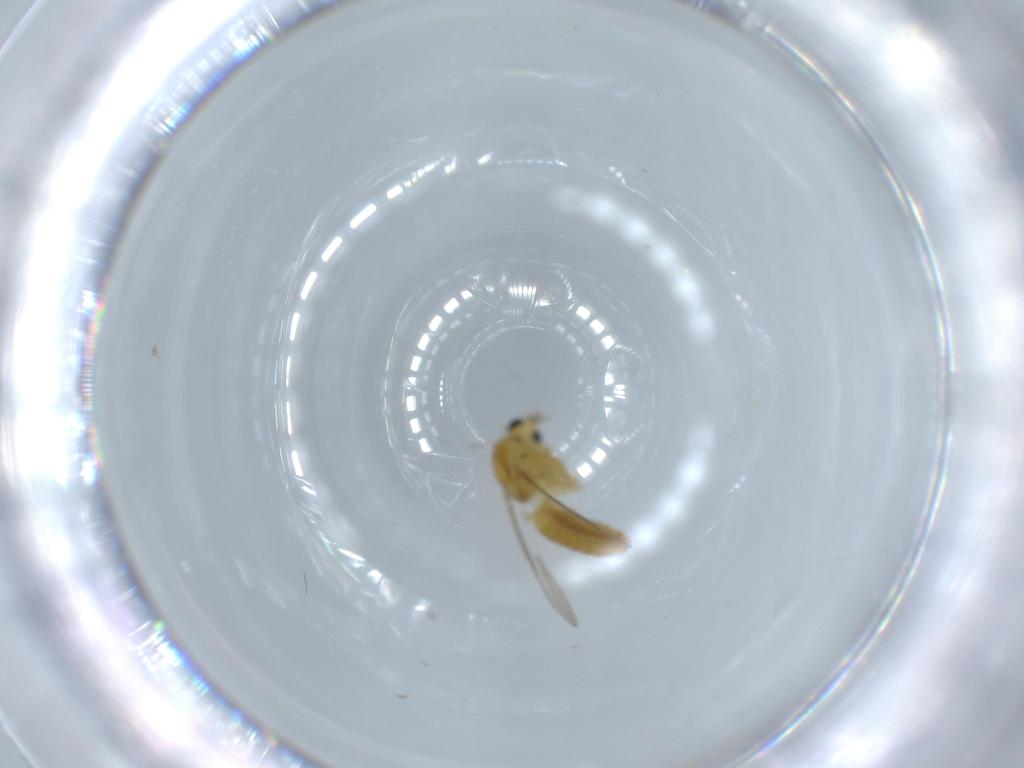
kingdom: Animalia
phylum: Arthropoda
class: Insecta
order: Diptera
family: Chironomidae
